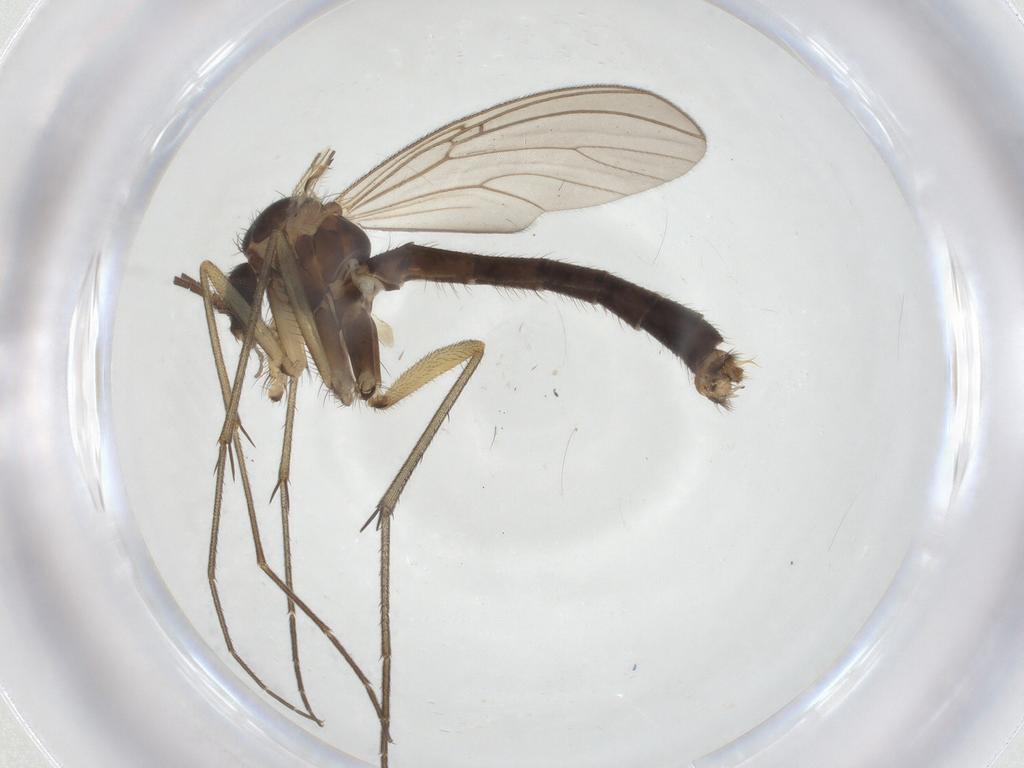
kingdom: Animalia
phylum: Arthropoda
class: Insecta
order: Diptera
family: Mycetophilidae
